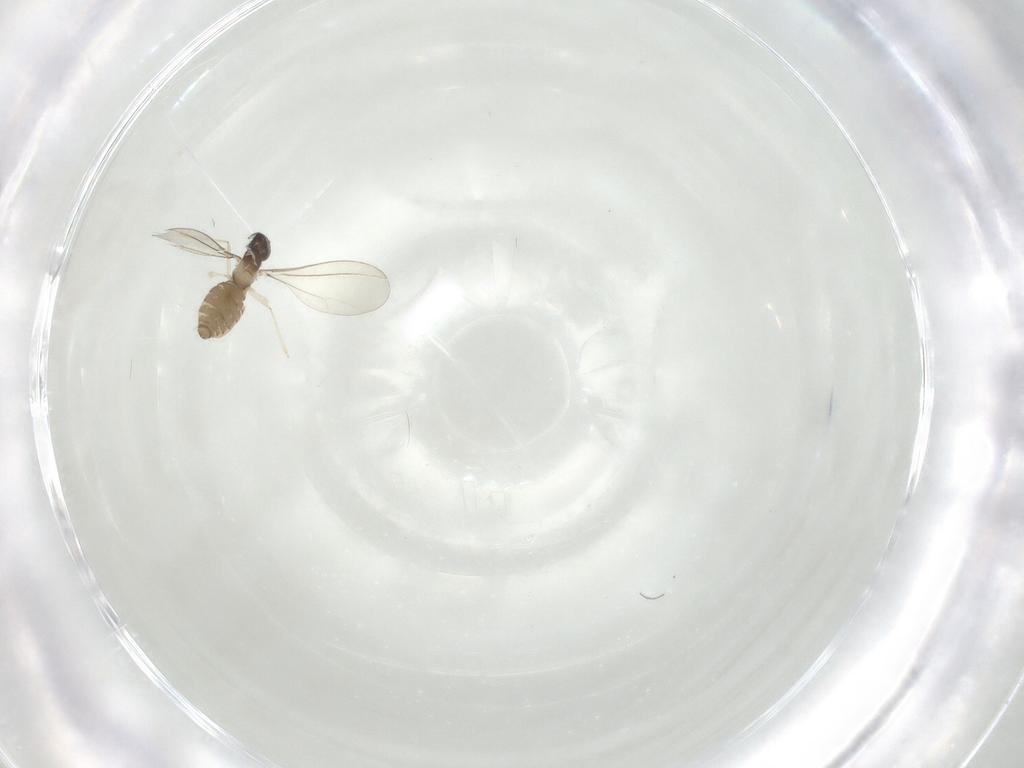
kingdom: Animalia
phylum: Arthropoda
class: Insecta
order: Diptera
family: Cecidomyiidae
